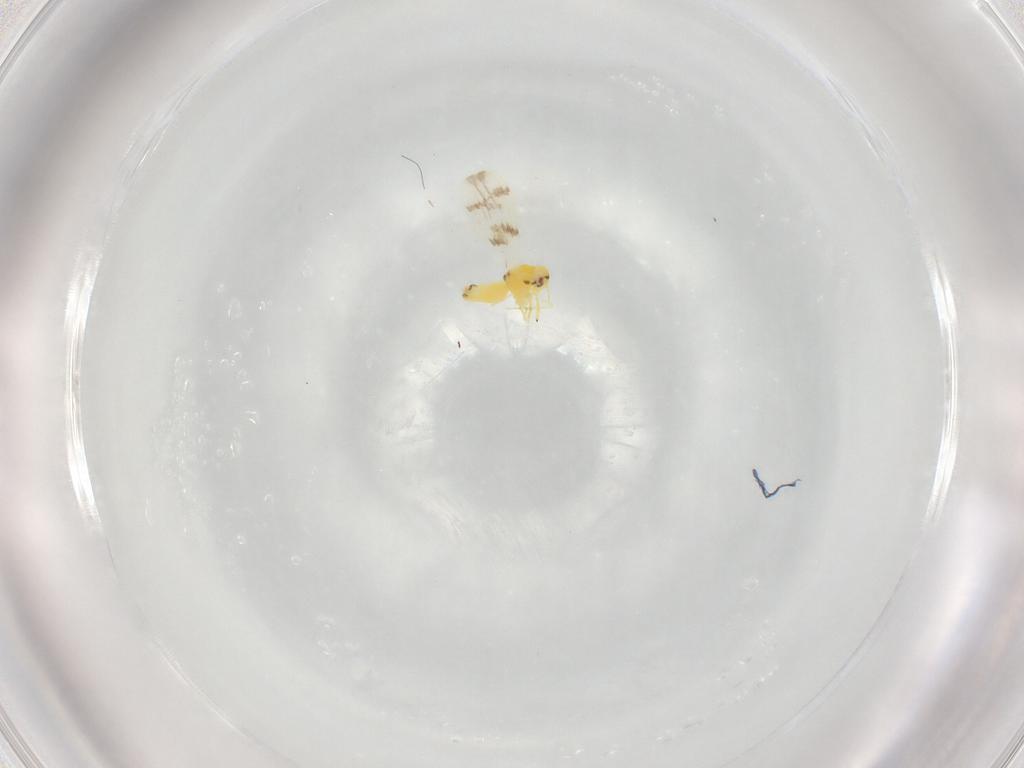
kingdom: Animalia
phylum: Arthropoda
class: Insecta
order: Hemiptera
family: Aleyrodidae
